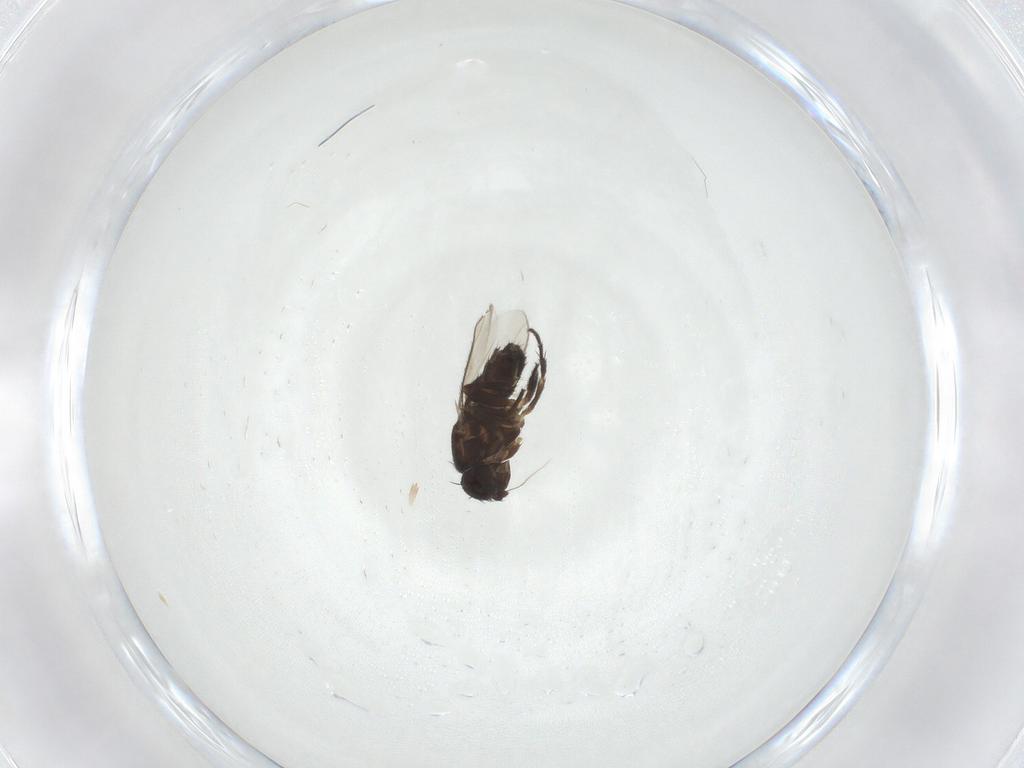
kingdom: Animalia
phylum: Arthropoda
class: Insecta
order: Diptera
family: Sphaeroceridae
